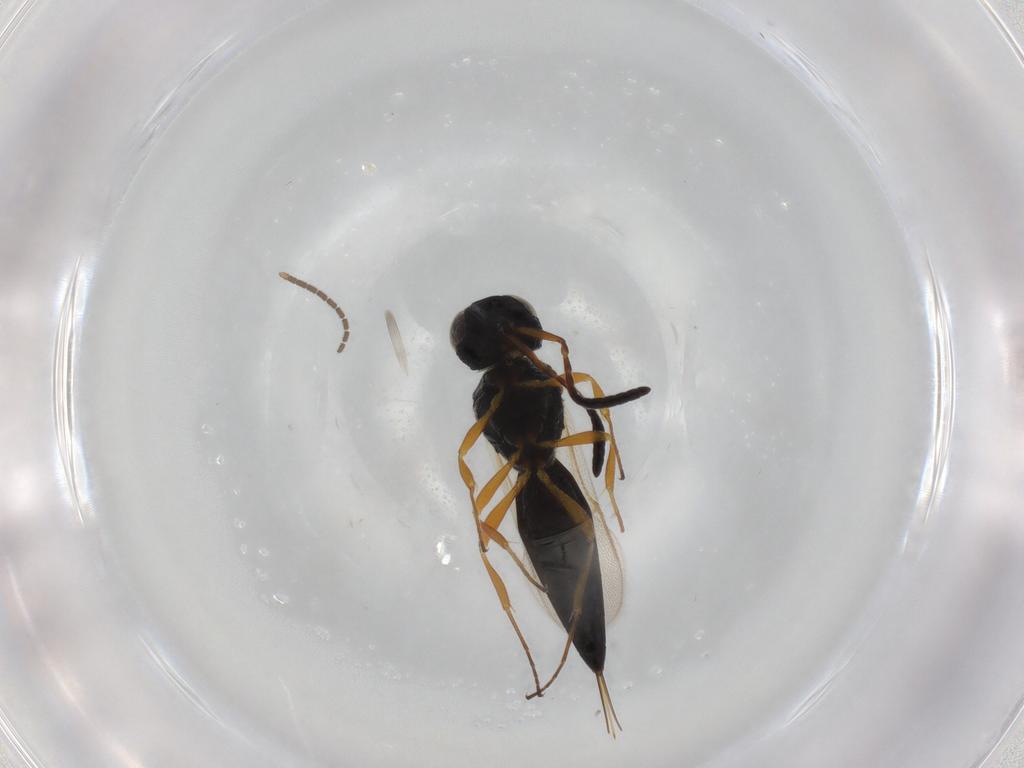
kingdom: Animalia
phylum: Arthropoda
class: Insecta
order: Hymenoptera
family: Scelionidae
